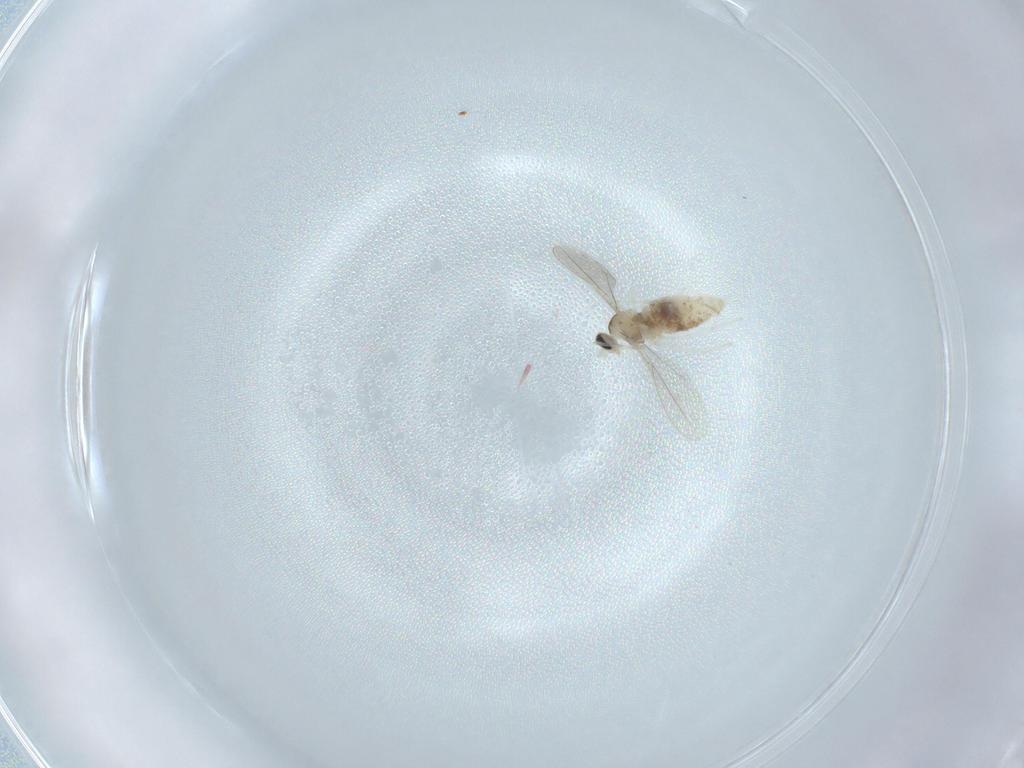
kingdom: Animalia
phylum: Arthropoda
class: Insecta
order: Diptera
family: Cecidomyiidae
